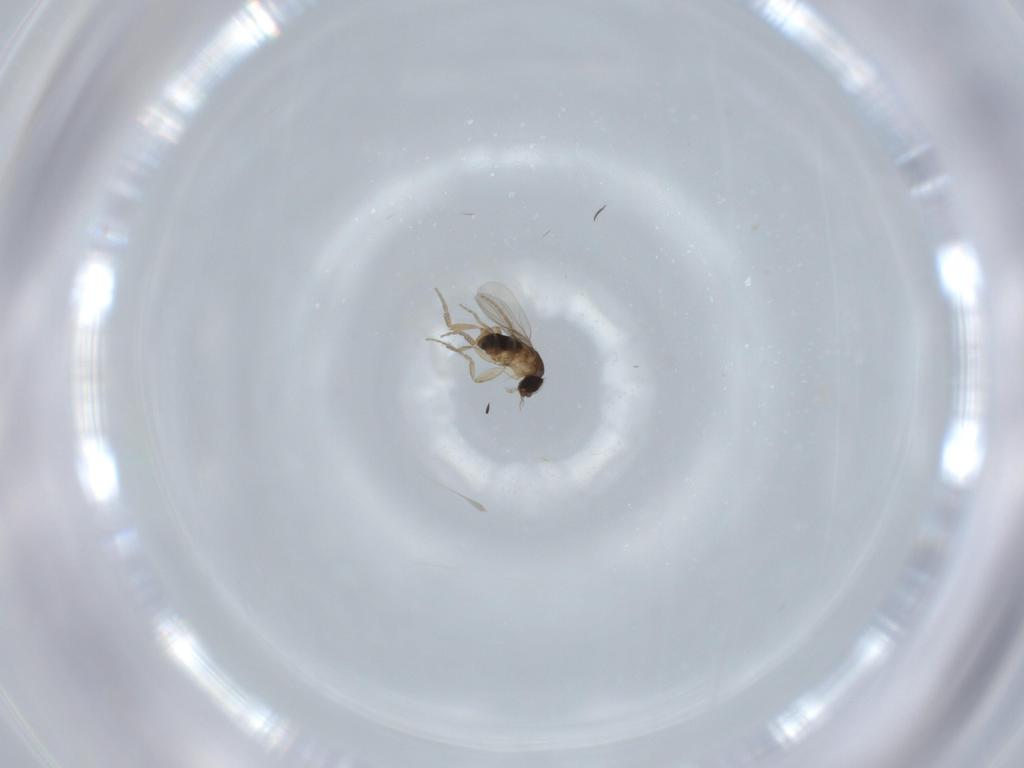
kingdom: Animalia
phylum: Arthropoda
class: Insecta
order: Diptera
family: Phoridae
